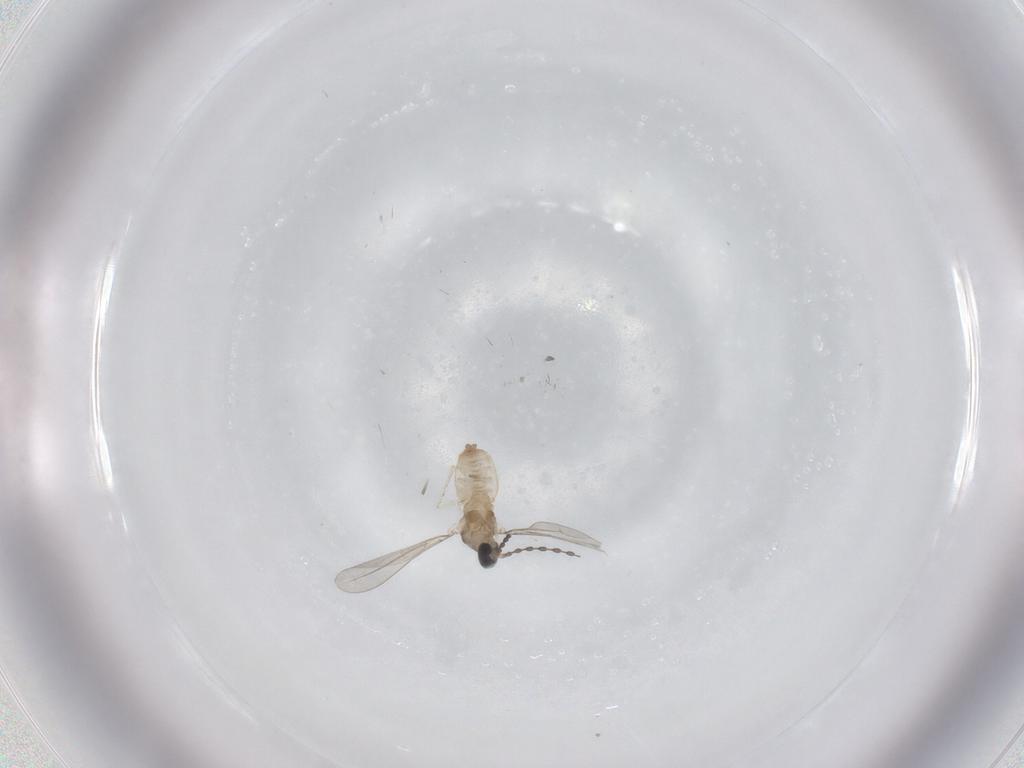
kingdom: Animalia
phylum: Arthropoda
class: Insecta
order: Diptera
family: Cecidomyiidae
